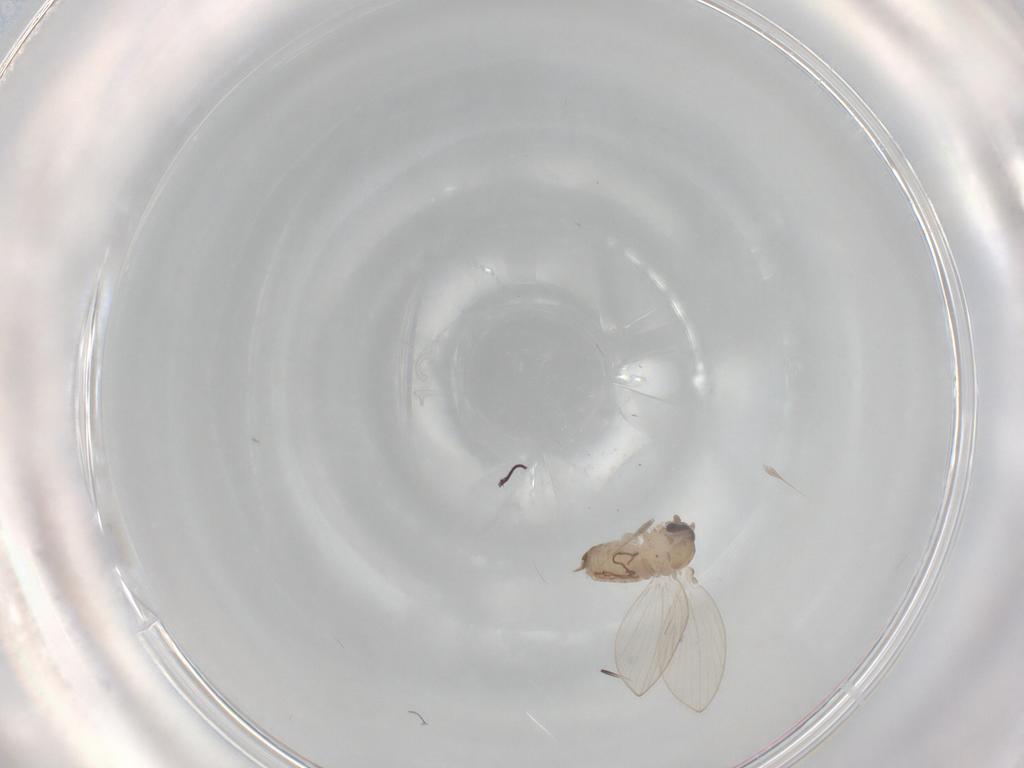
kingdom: Animalia
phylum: Arthropoda
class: Insecta
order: Diptera
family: Psychodidae
